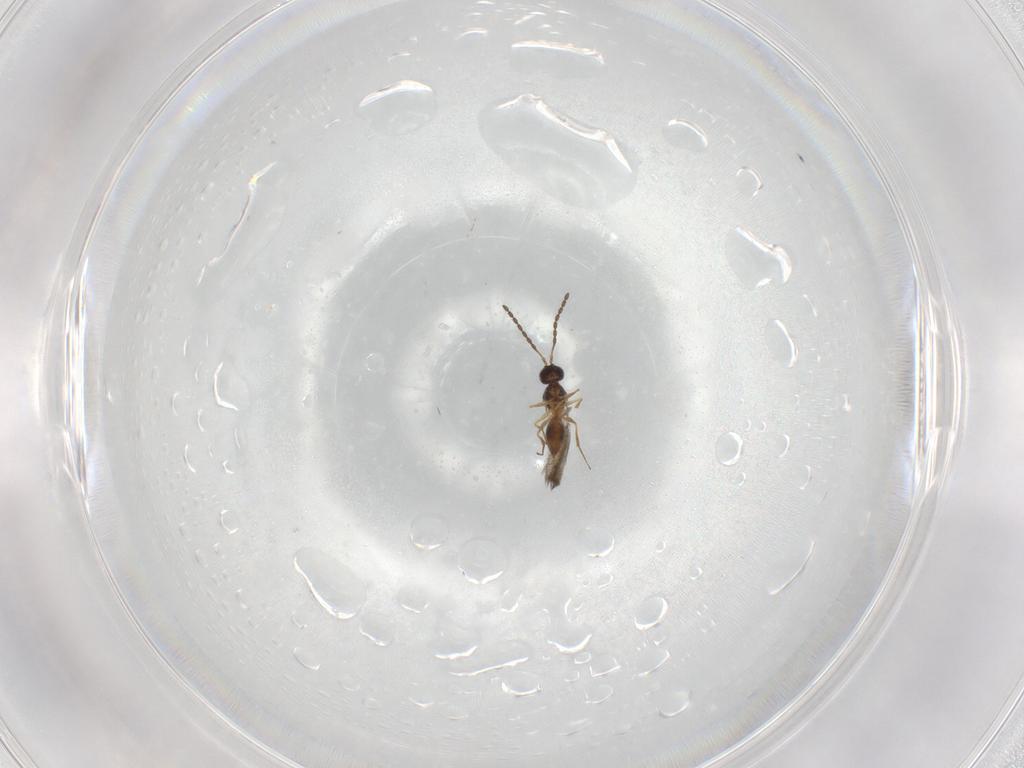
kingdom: Animalia
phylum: Arthropoda
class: Insecta
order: Hymenoptera
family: Figitidae
